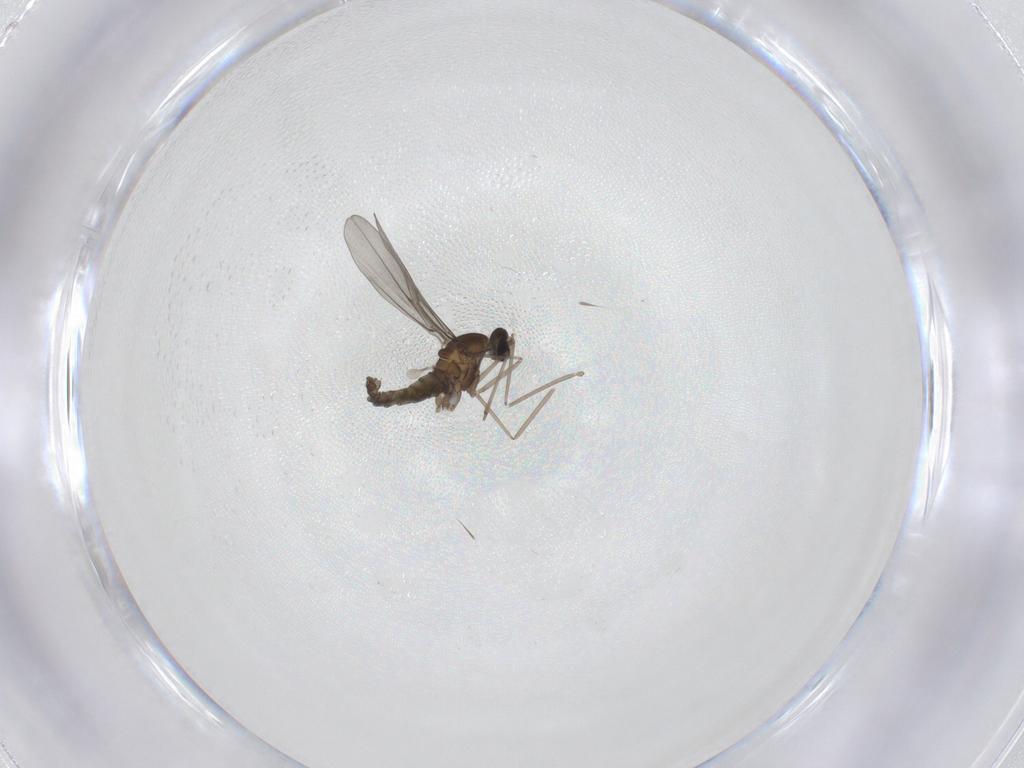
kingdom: Animalia
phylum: Arthropoda
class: Insecta
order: Diptera
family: Cecidomyiidae
